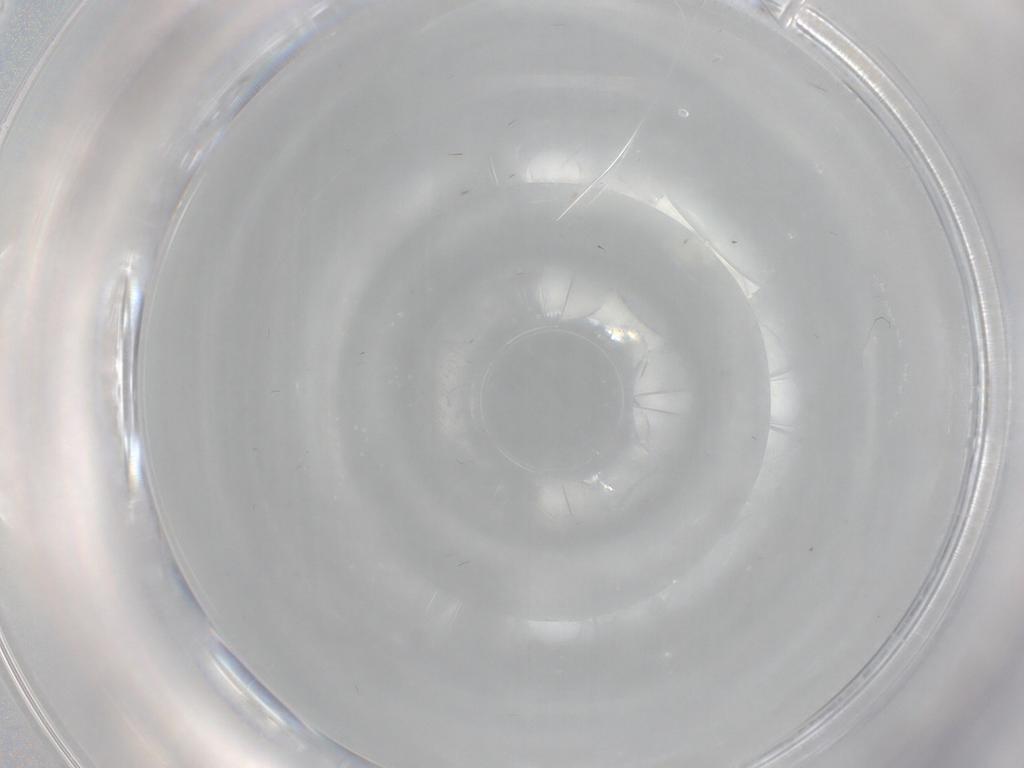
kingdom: Animalia
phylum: Arthropoda
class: Insecta
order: Diptera
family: Cecidomyiidae
